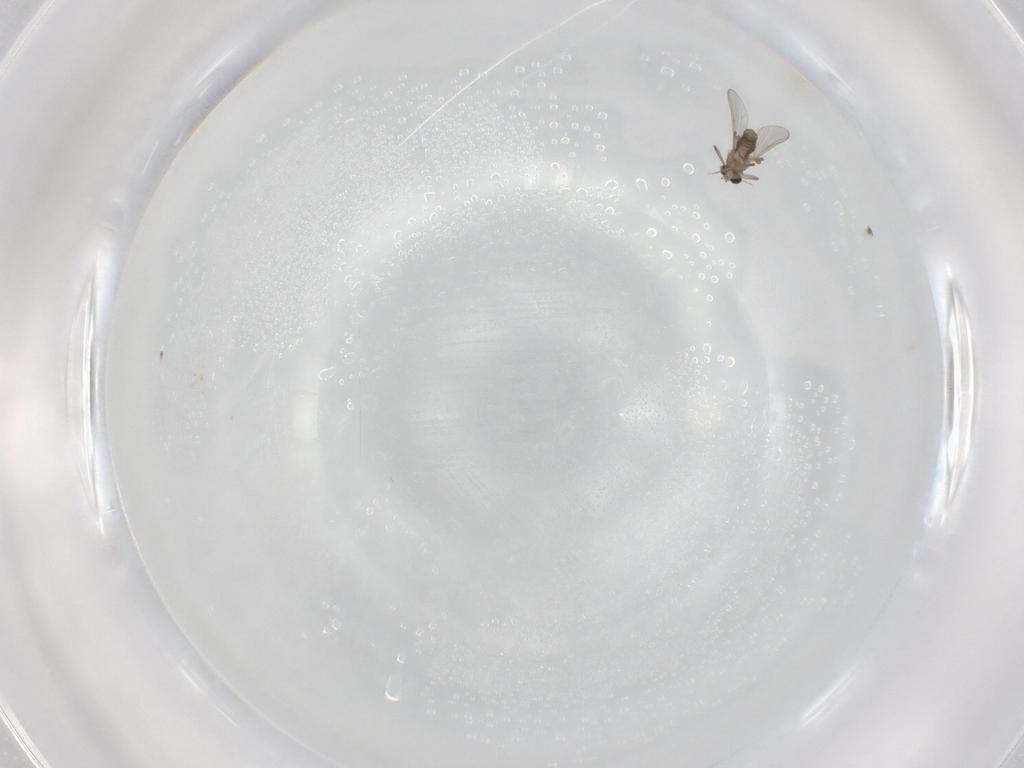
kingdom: Animalia
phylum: Arthropoda
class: Insecta
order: Diptera
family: Chironomidae
